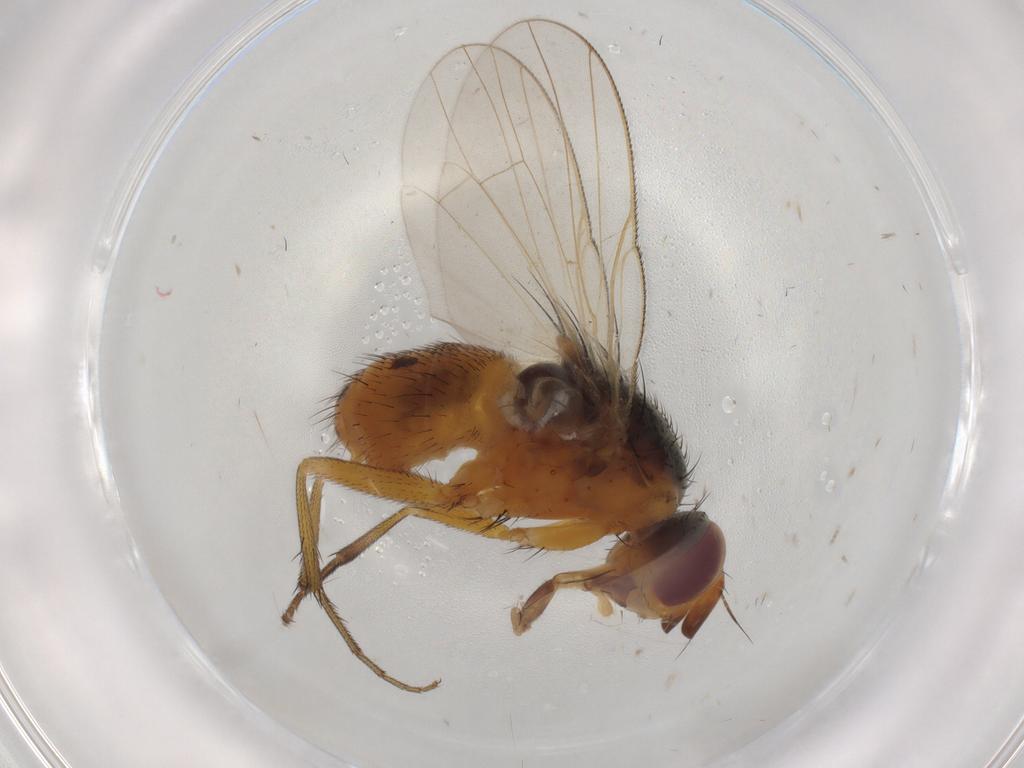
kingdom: Animalia
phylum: Arthropoda
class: Insecta
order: Diptera
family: Muscidae
